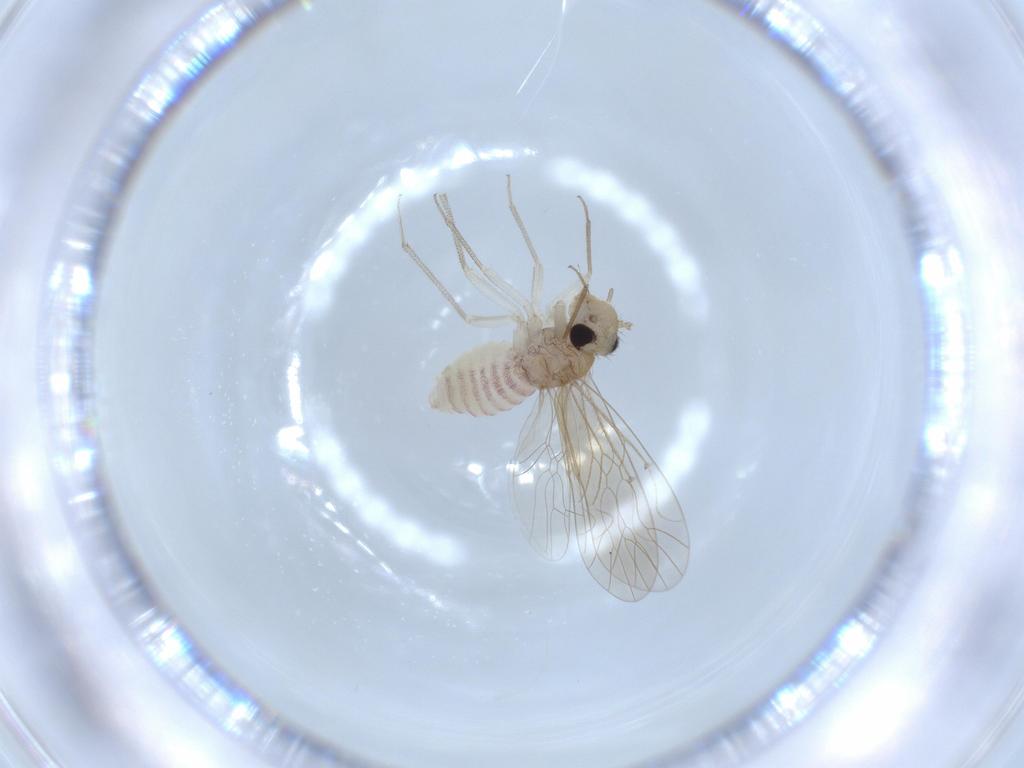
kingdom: Animalia
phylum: Arthropoda
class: Insecta
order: Psocodea
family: Caeciliusidae
